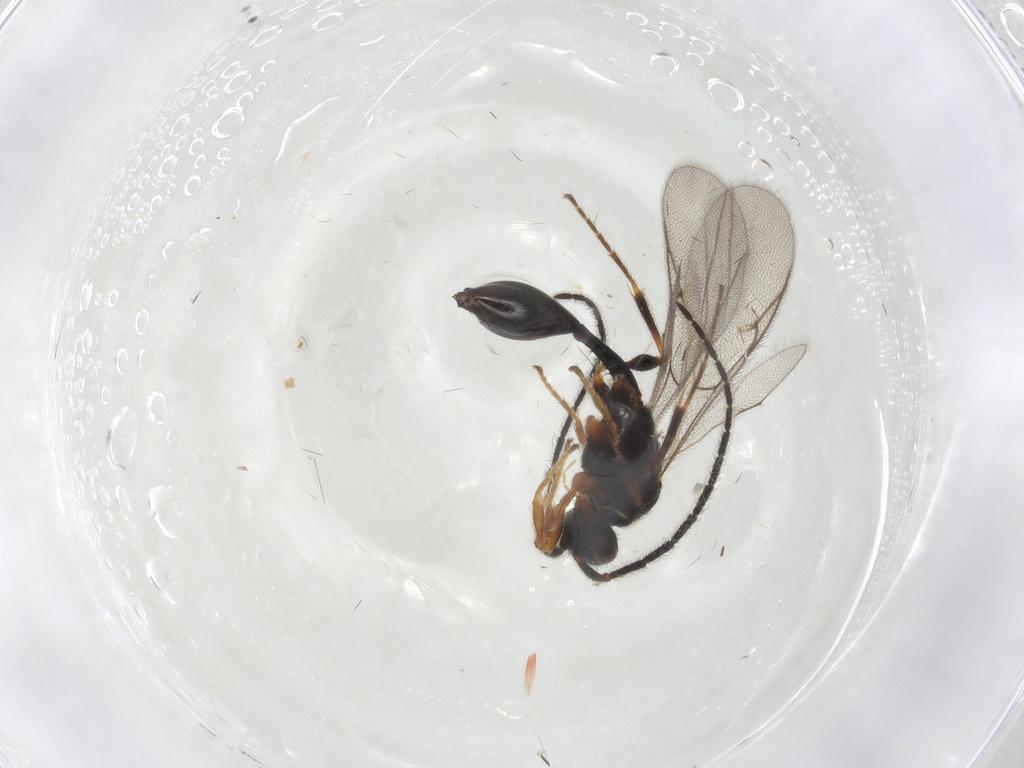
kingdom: Animalia
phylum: Arthropoda
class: Insecta
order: Hymenoptera
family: Diapriidae
